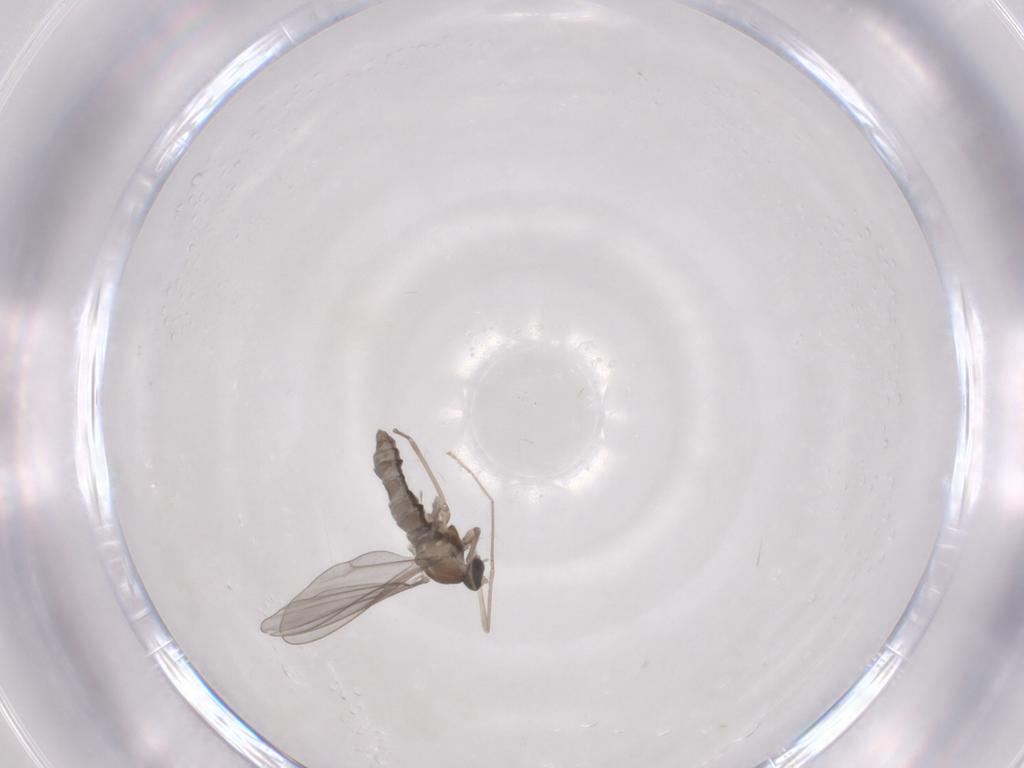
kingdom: Animalia
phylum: Arthropoda
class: Insecta
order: Diptera
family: Cecidomyiidae
